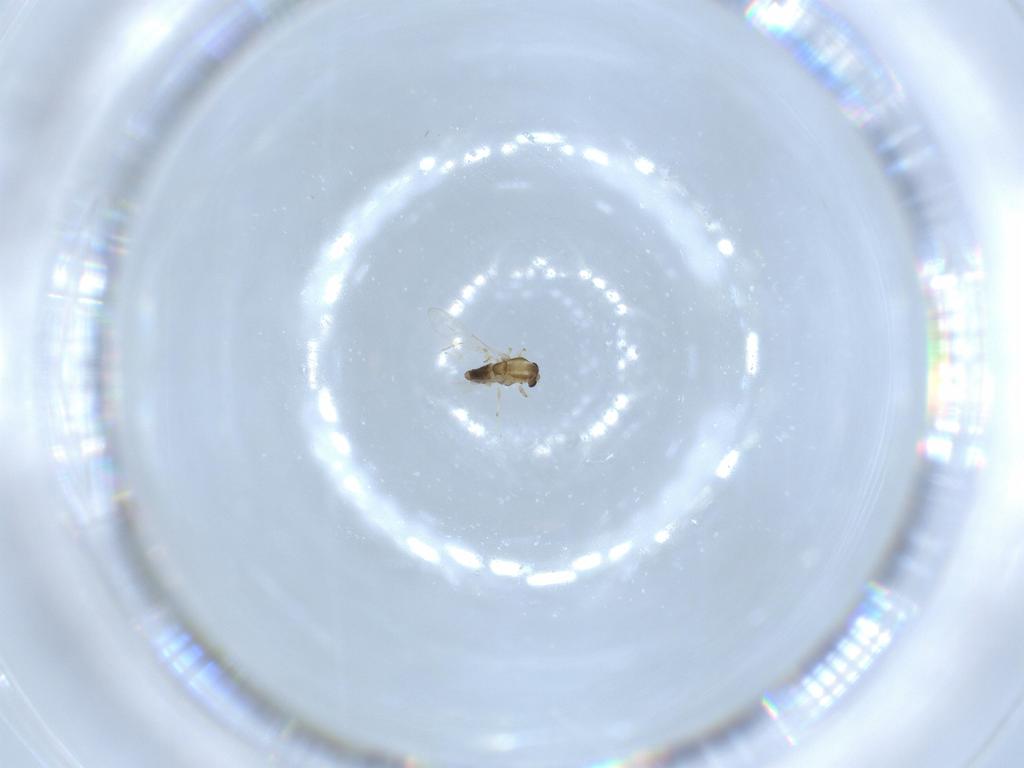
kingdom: Animalia
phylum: Arthropoda
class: Insecta
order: Diptera
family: Chironomidae
